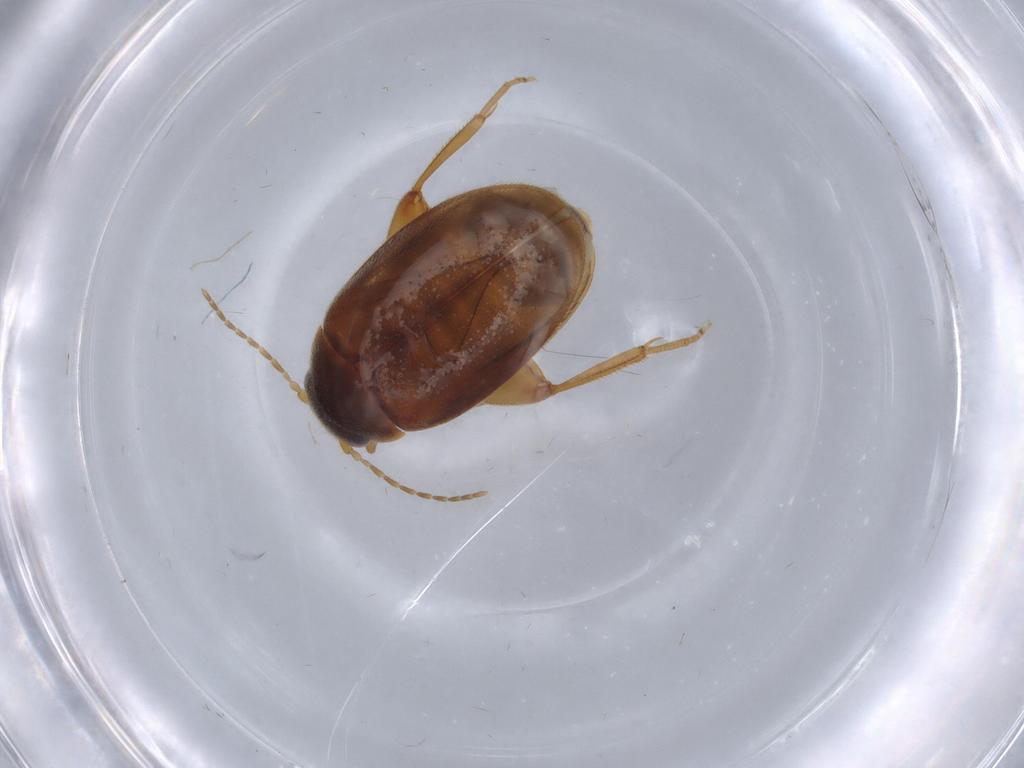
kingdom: Animalia
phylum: Arthropoda
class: Insecta
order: Coleoptera
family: Scirtidae
